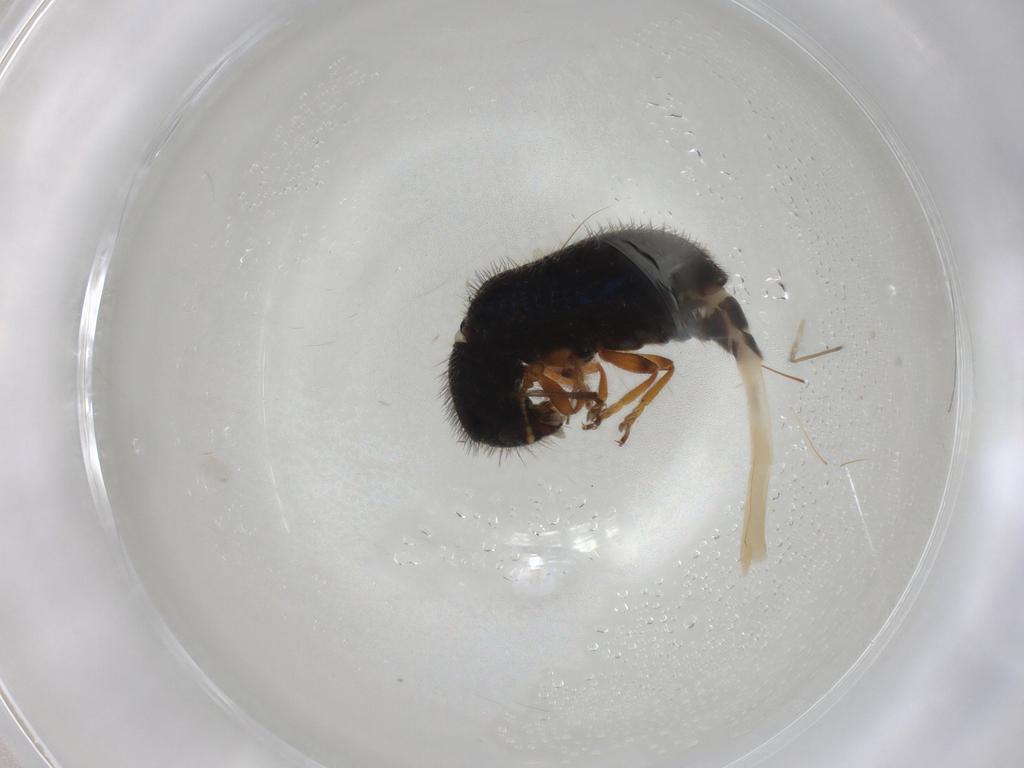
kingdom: Animalia
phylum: Arthropoda
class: Insecta
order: Coleoptera
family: Cleridae
